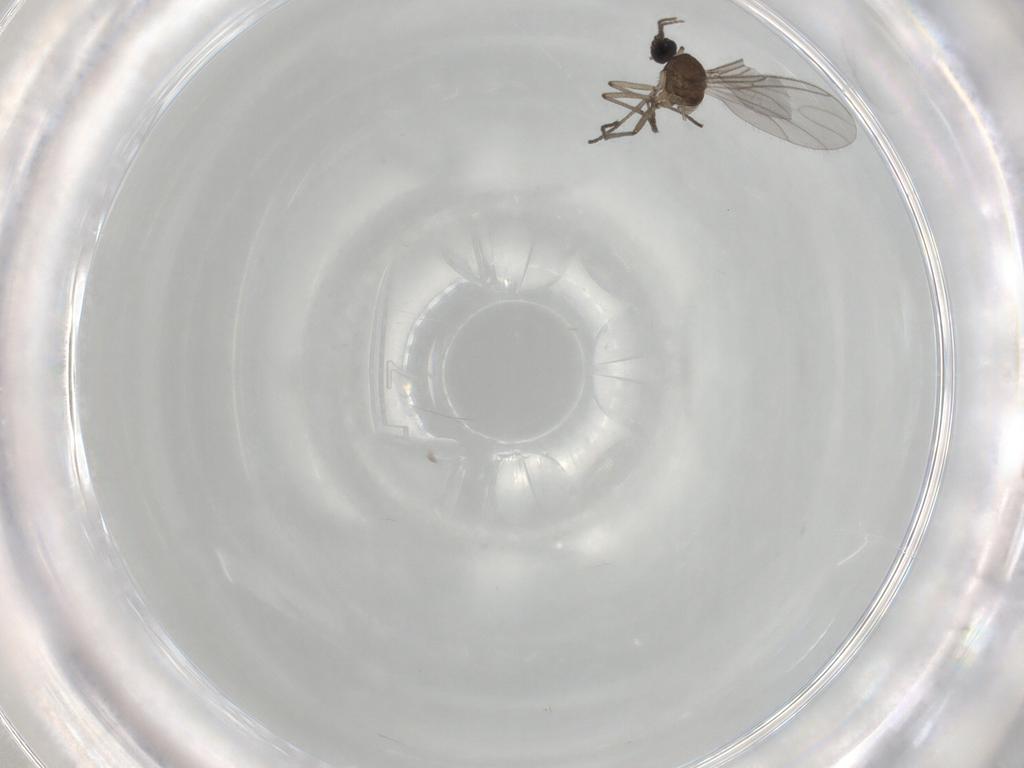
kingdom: Animalia
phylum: Arthropoda
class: Insecta
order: Diptera
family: Sciaridae
